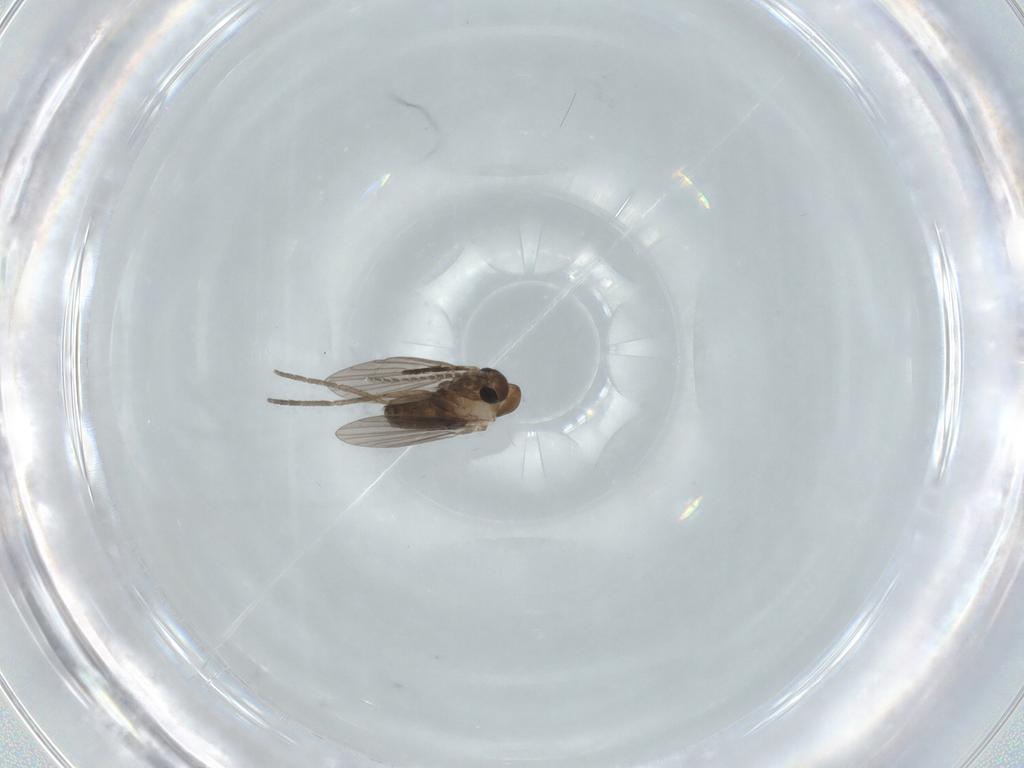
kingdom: Animalia
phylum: Arthropoda
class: Insecta
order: Diptera
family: Psychodidae
